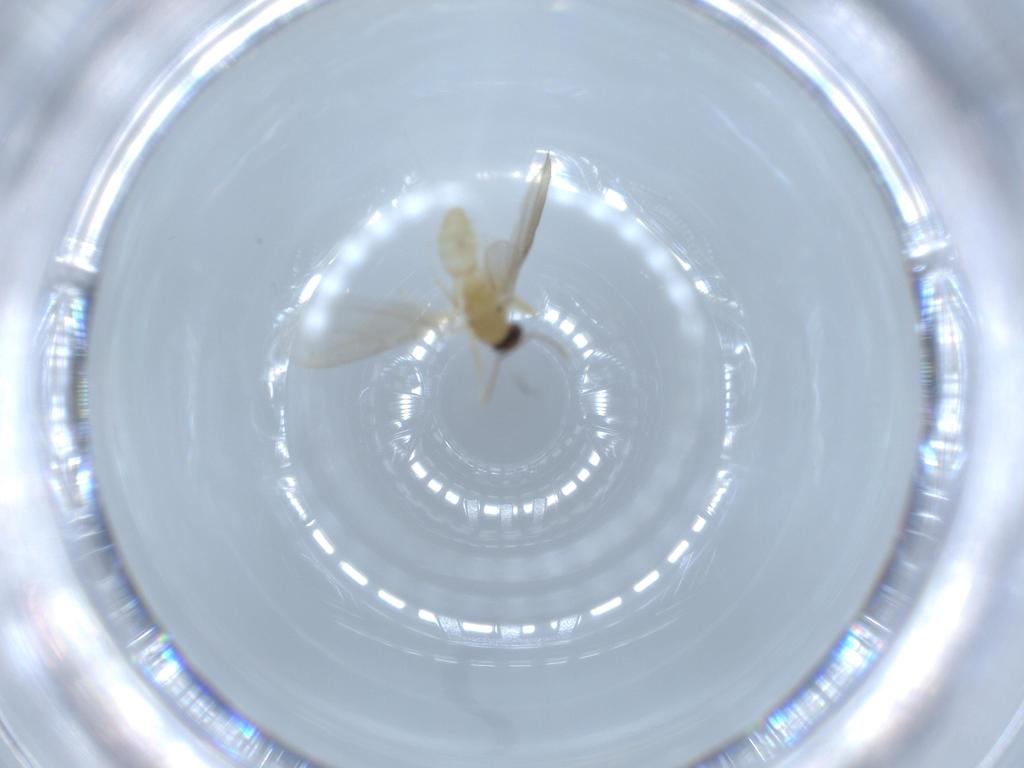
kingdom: Animalia
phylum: Arthropoda
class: Insecta
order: Hymenoptera
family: Formicidae
